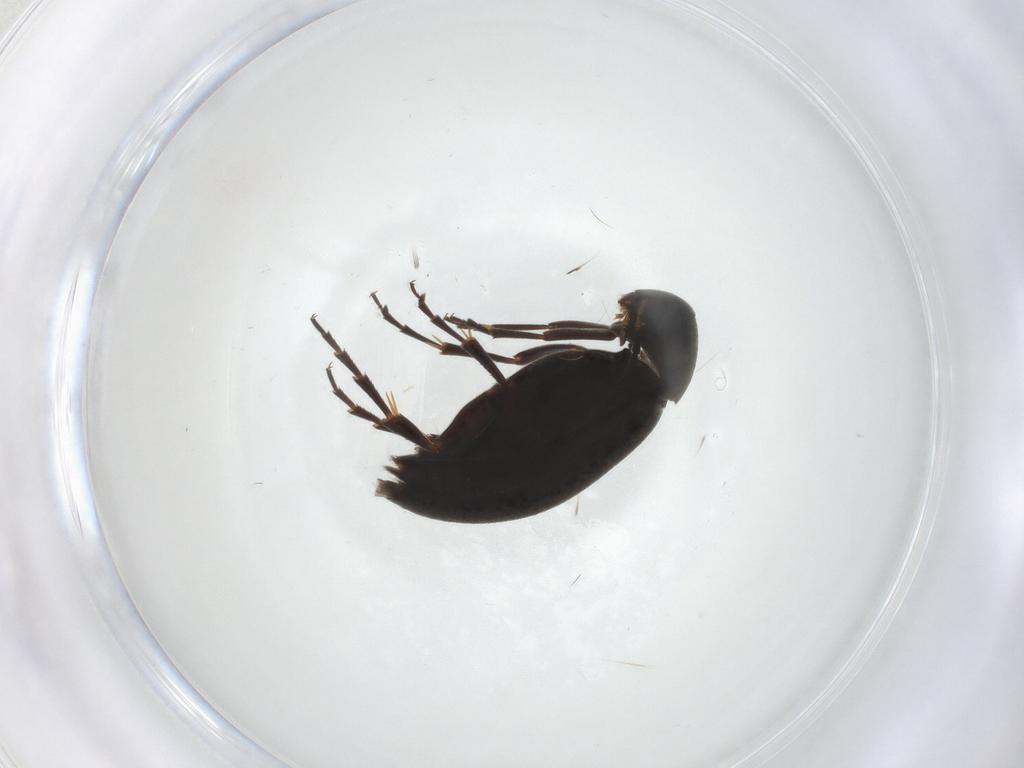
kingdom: Animalia
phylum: Arthropoda
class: Insecta
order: Coleoptera
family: Scraptiidae
